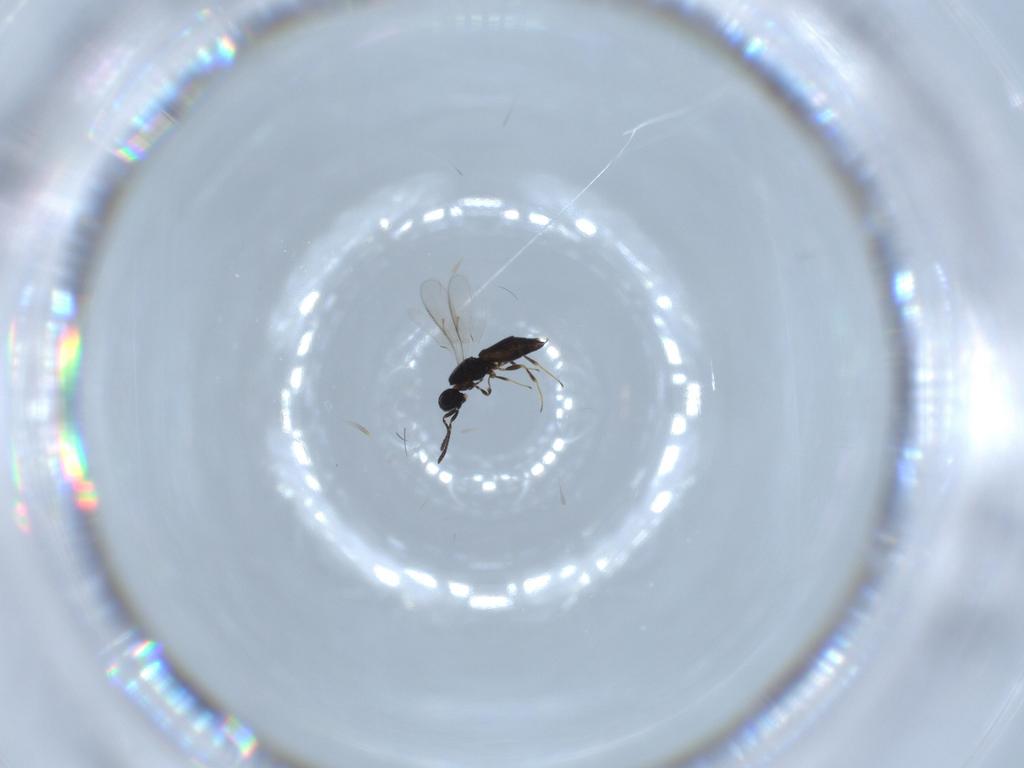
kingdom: Animalia
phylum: Arthropoda
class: Insecta
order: Hymenoptera
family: Scelionidae
